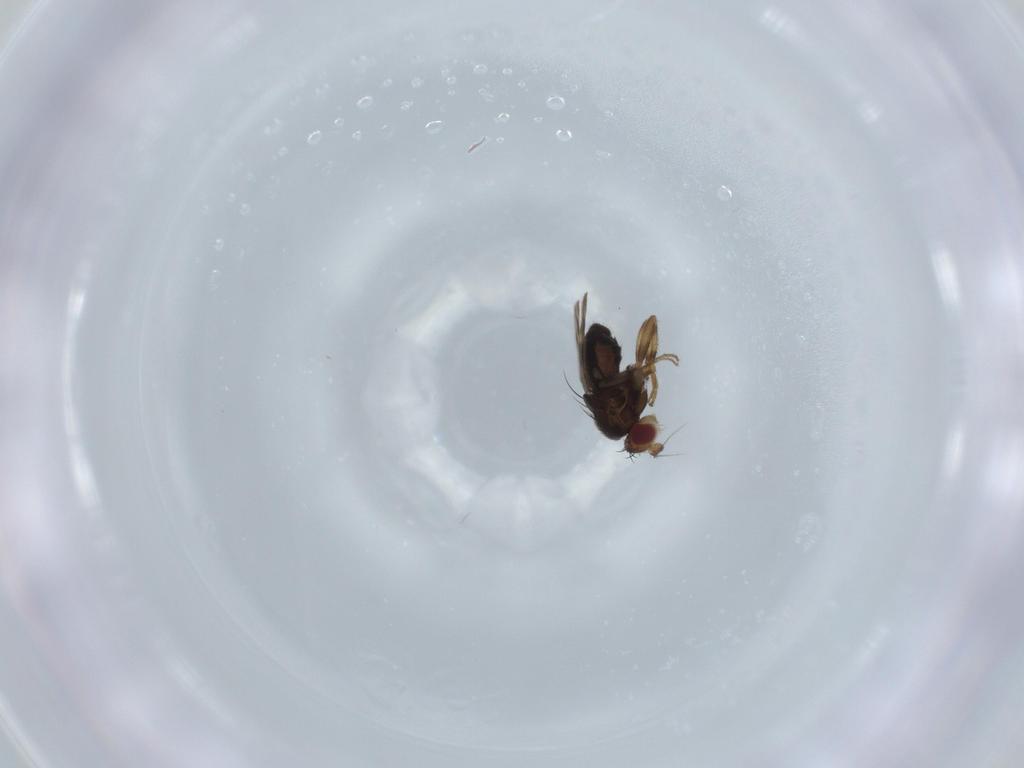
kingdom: Animalia
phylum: Arthropoda
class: Insecta
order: Diptera
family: Sphaeroceridae
